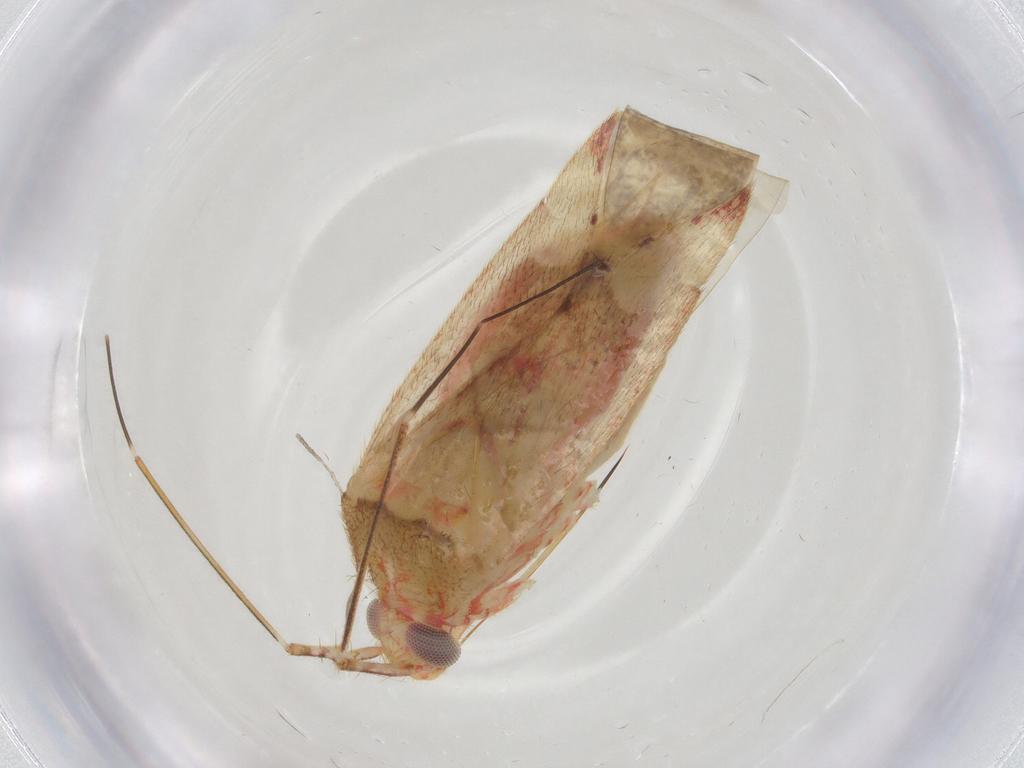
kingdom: Animalia
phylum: Arthropoda
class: Insecta
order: Hemiptera
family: Miridae
